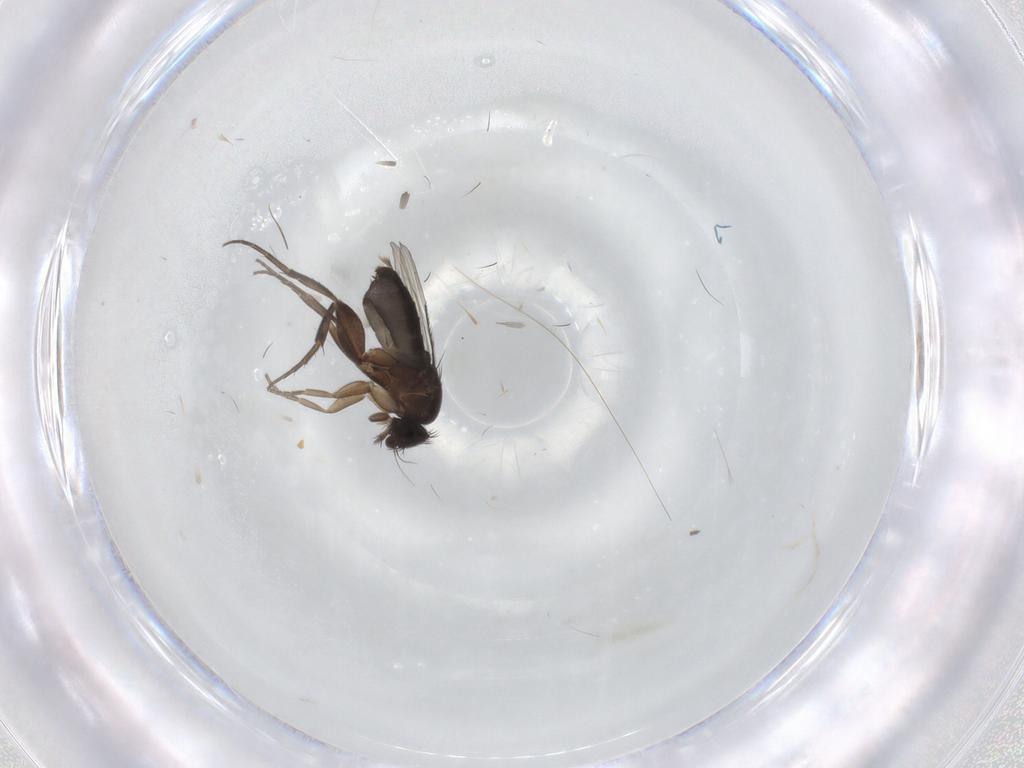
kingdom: Animalia
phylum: Arthropoda
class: Insecta
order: Diptera
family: Phoridae
